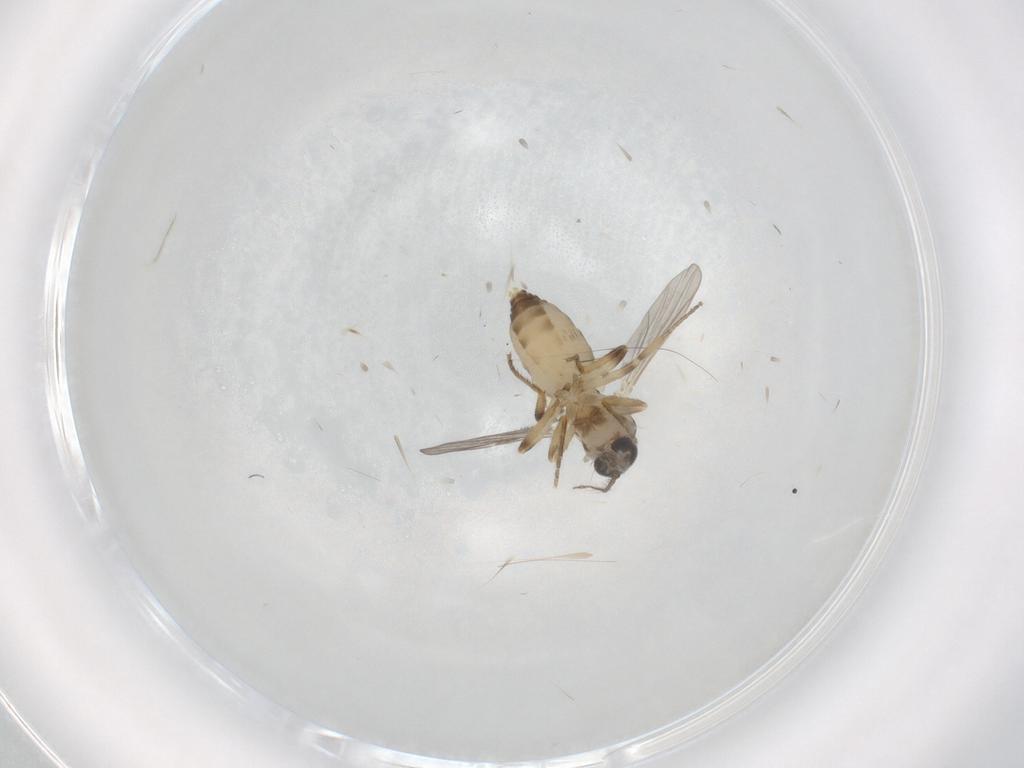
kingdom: Animalia
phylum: Arthropoda
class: Insecta
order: Diptera
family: Ceratopogonidae
